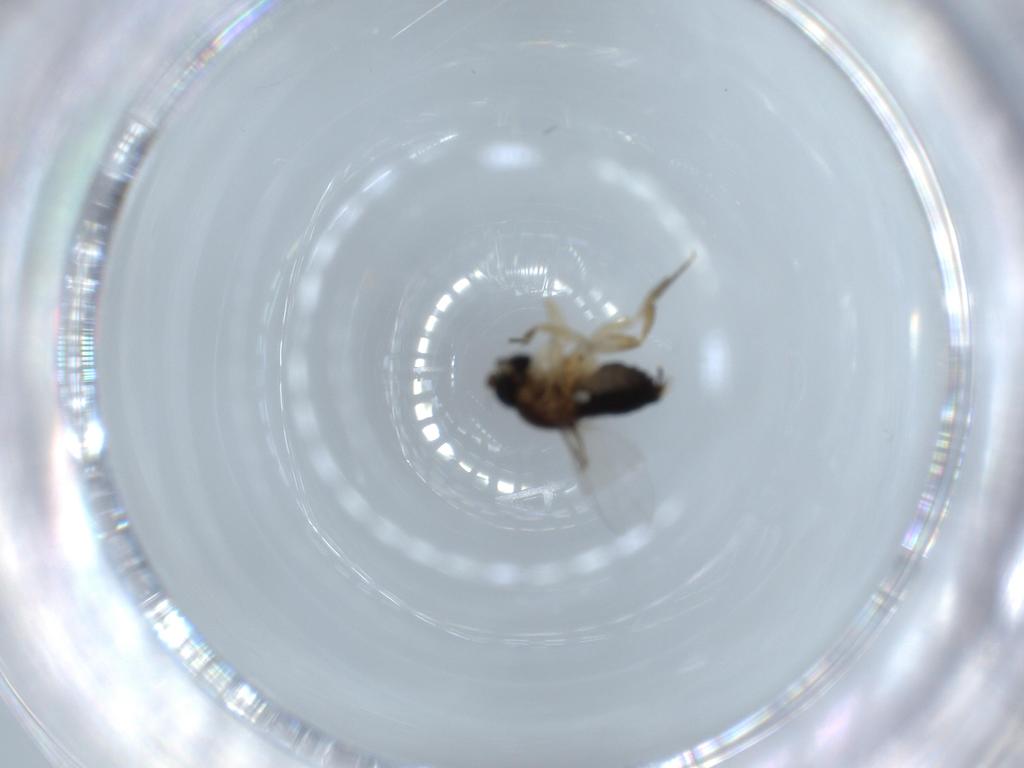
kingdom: Animalia
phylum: Arthropoda
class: Insecta
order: Diptera
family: Phoridae
